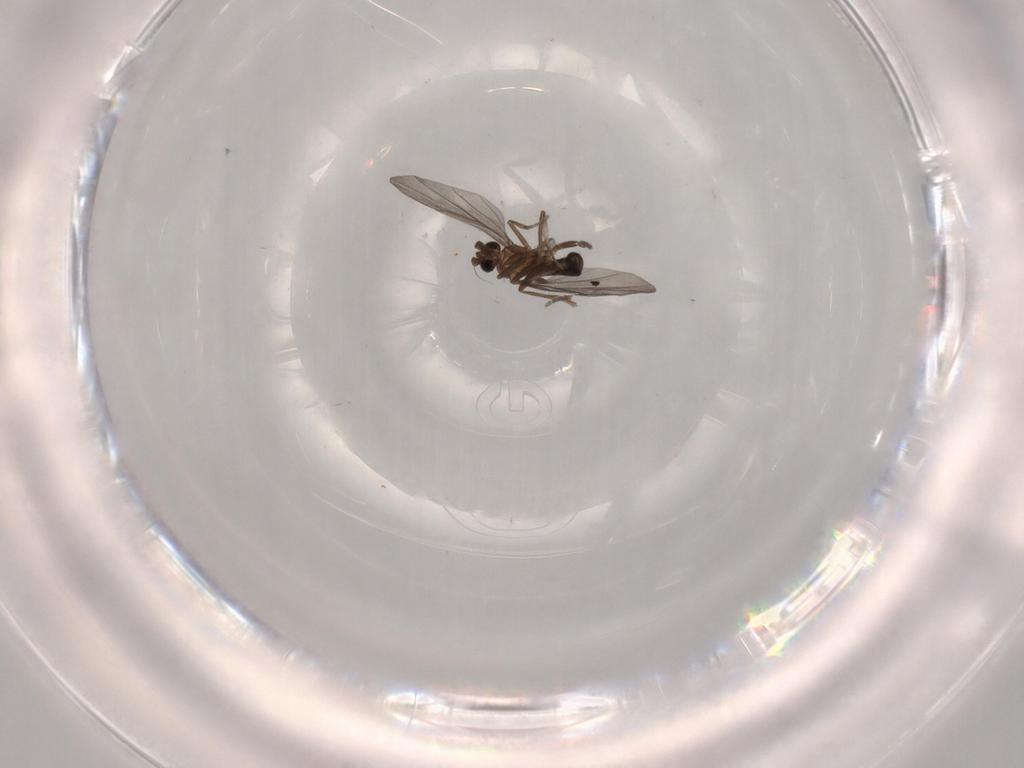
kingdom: Animalia
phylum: Arthropoda
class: Insecta
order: Diptera
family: Phoridae
